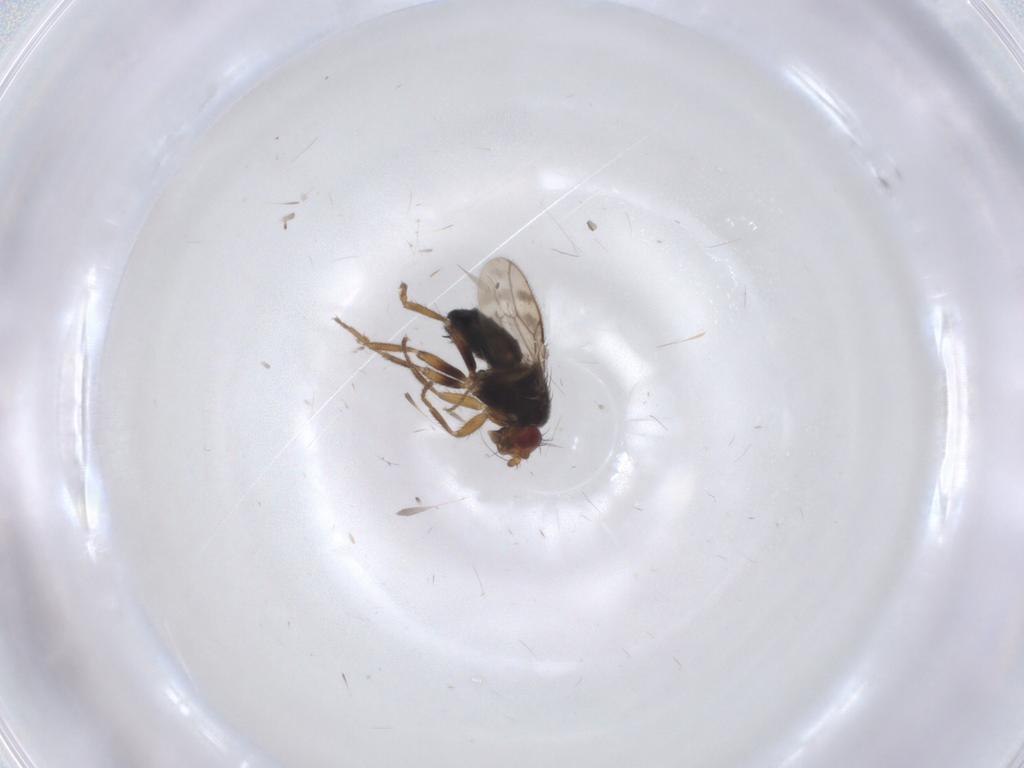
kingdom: Animalia
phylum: Arthropoda
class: Insecta
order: Diptera
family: Sphaeroceridae
